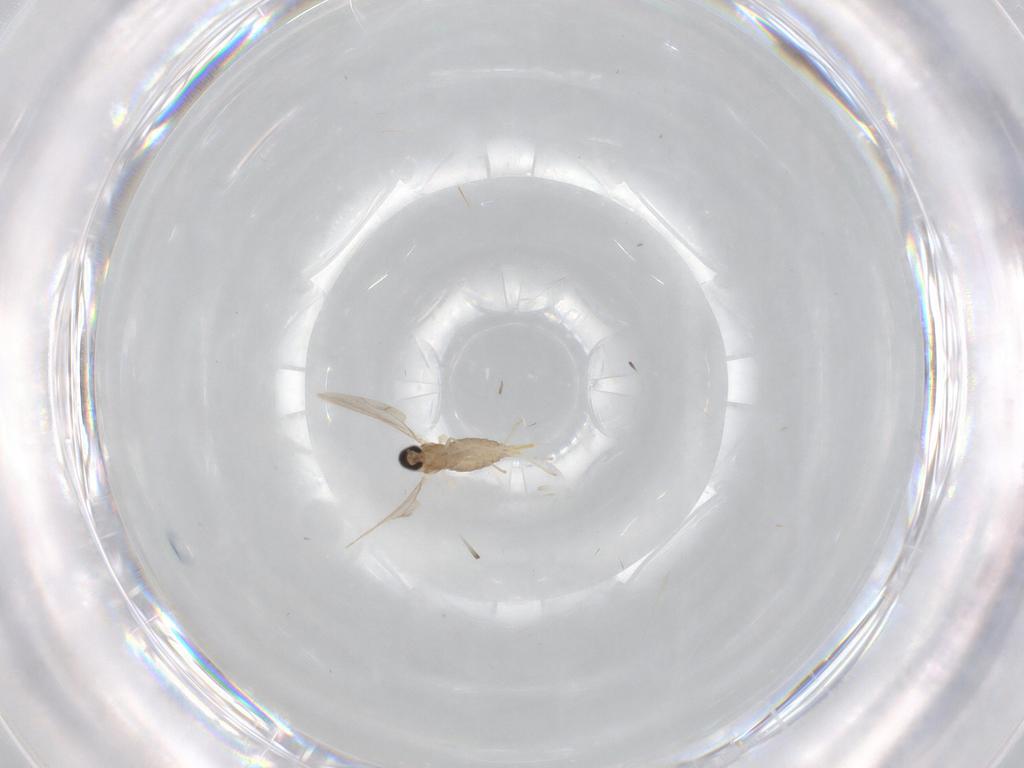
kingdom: Animalia
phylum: Arthropoda
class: Insecta
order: Diptera
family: Cecidomyiidae
